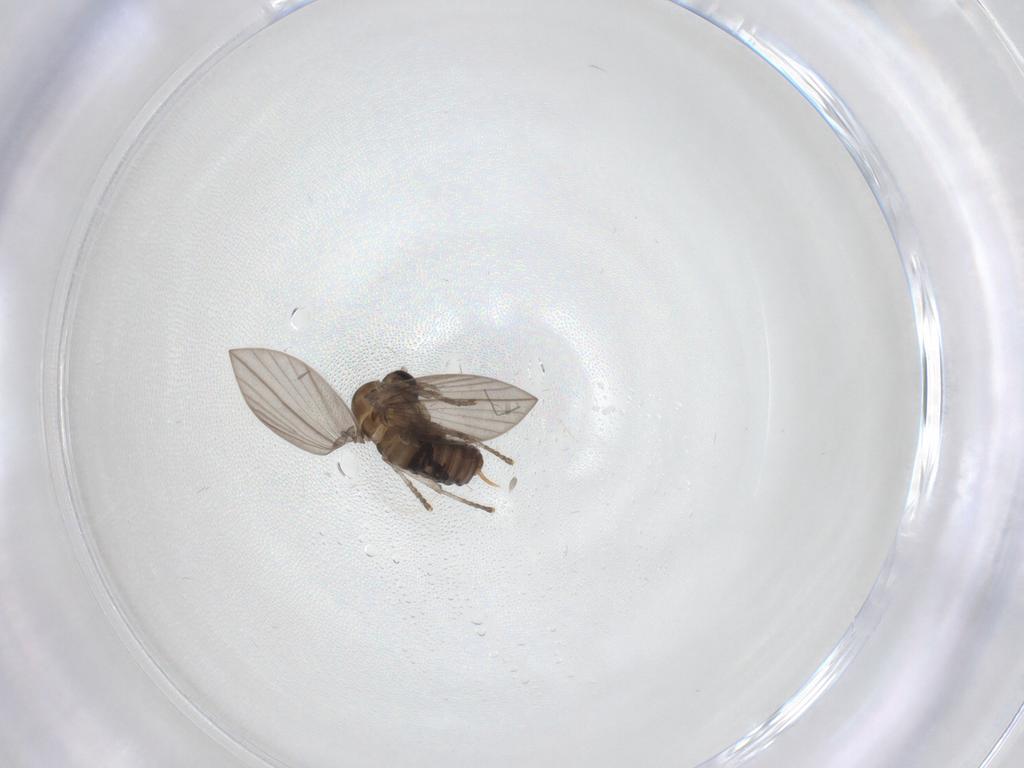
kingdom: Animalia
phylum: Arthropoda
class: Insecta
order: Diptera
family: Psychodidae
